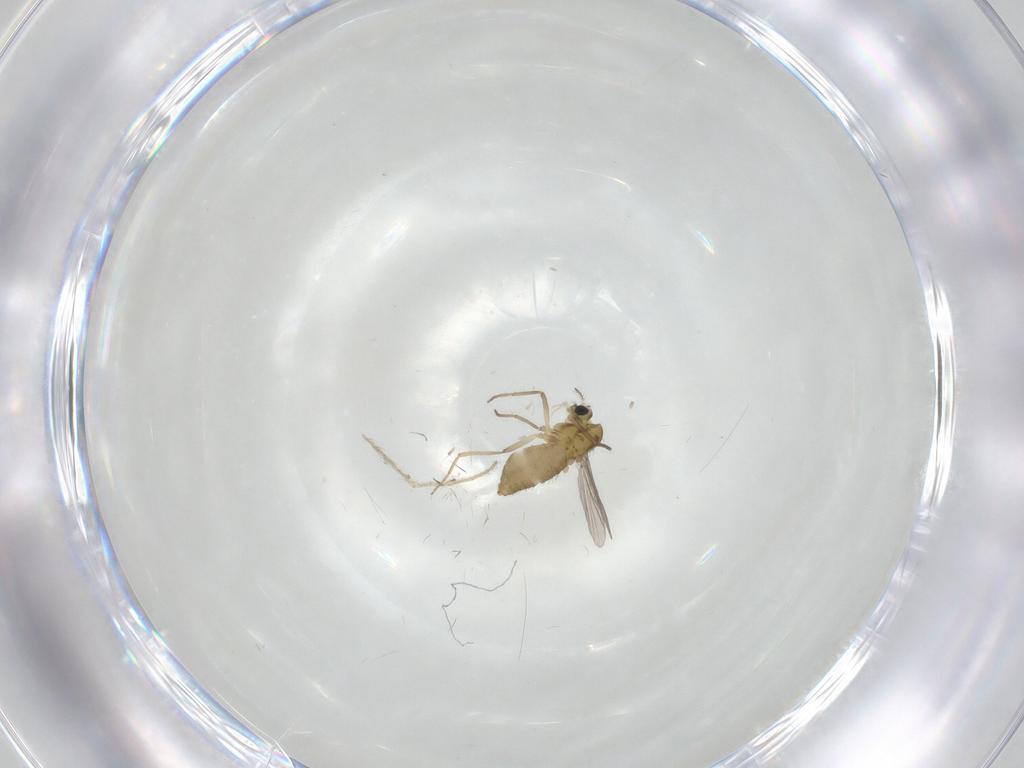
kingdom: Animalia
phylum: Arthropoda
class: Insecta
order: Diptera
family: Chironomidae
